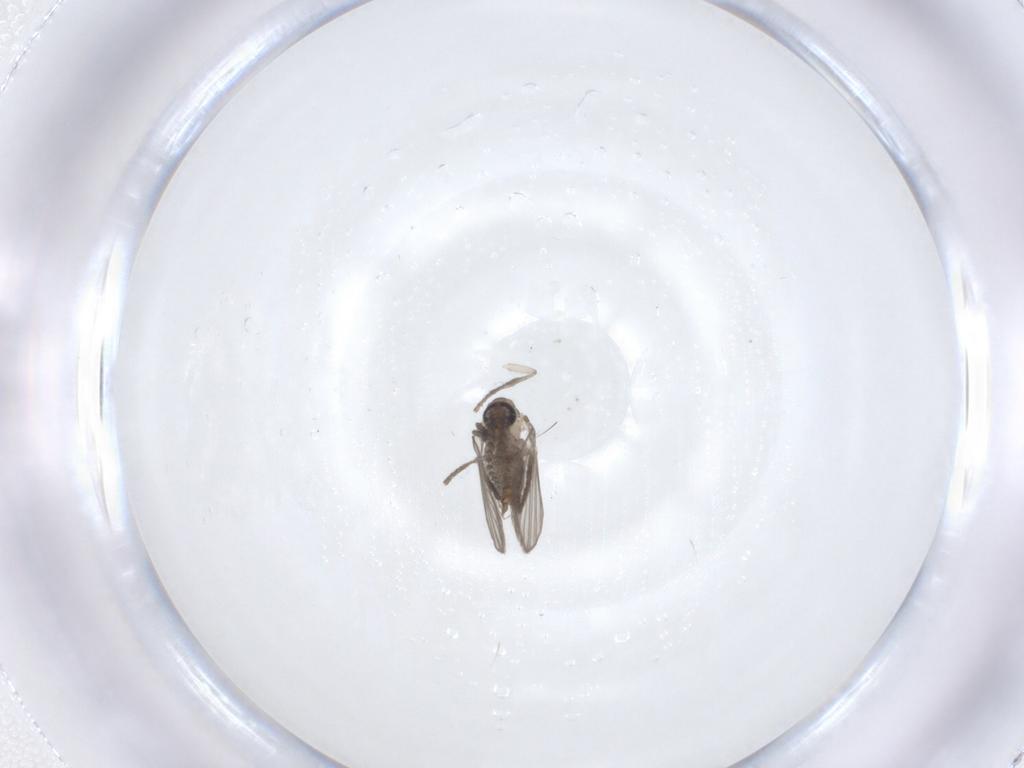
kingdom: Animalia
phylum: Arthropoda
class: Insecta
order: Diptera
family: Psychodidae
